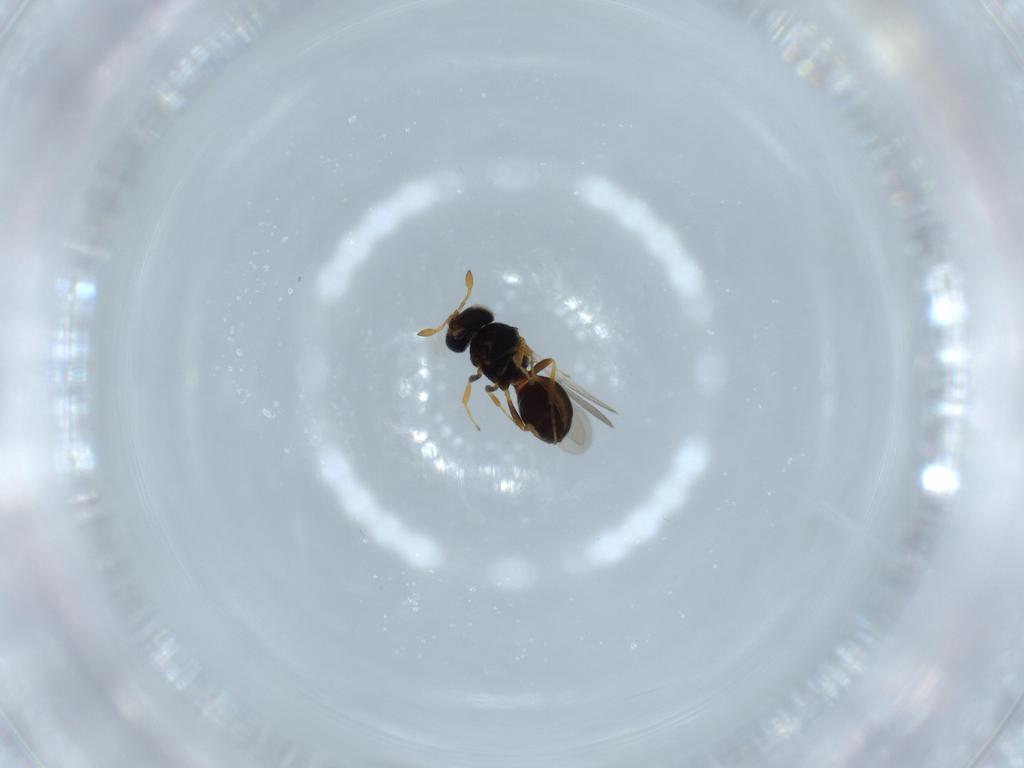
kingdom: Animalia
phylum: Arthropoda
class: Insecta
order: Hymenoptera
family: Scelionidae
